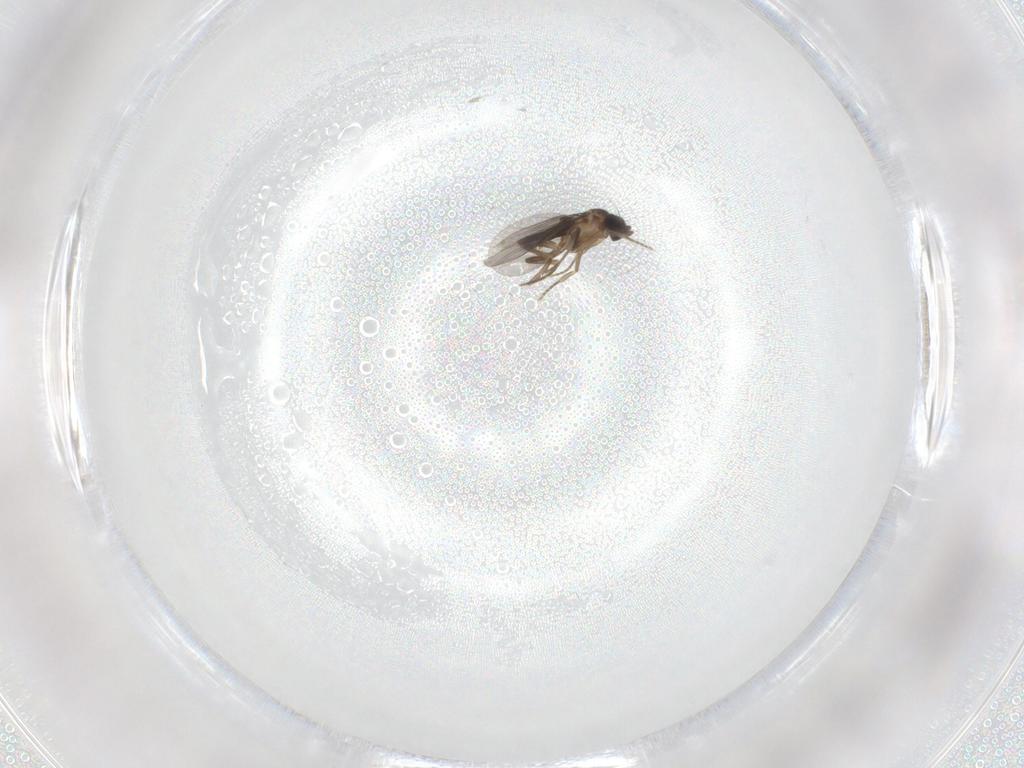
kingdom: Animalia
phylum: Arthropoda
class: Insecta
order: Diptera
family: Phoridae
